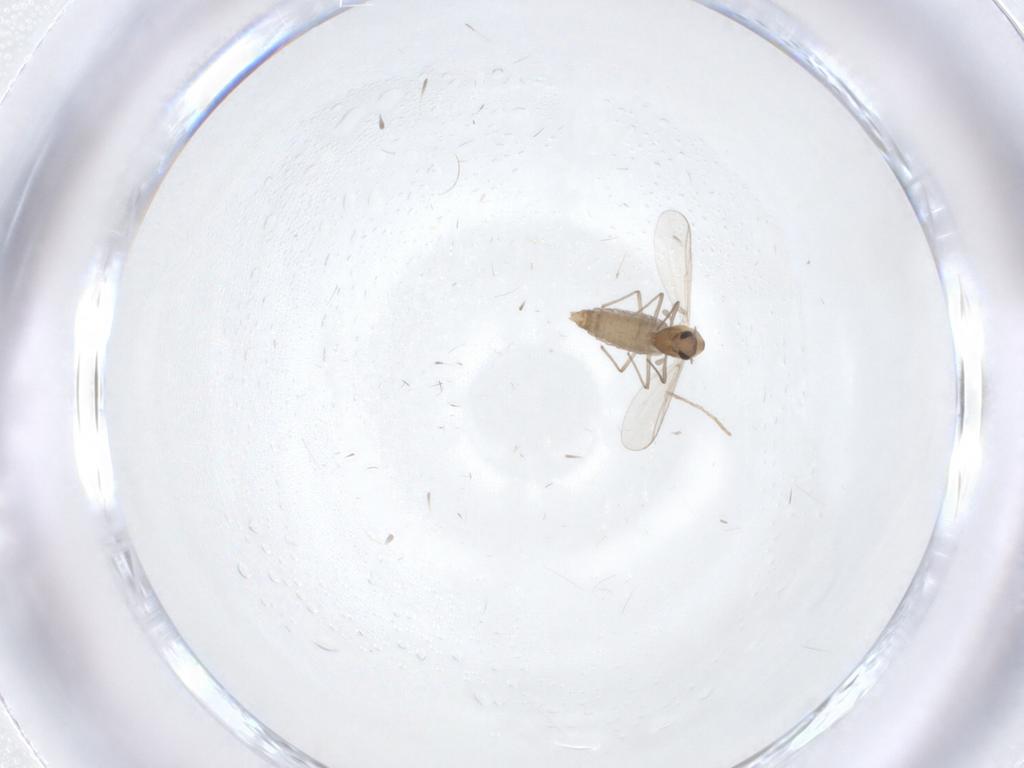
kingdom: Animalia
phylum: Arthropoda
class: Insecta
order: Diptera
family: Chironomidae
